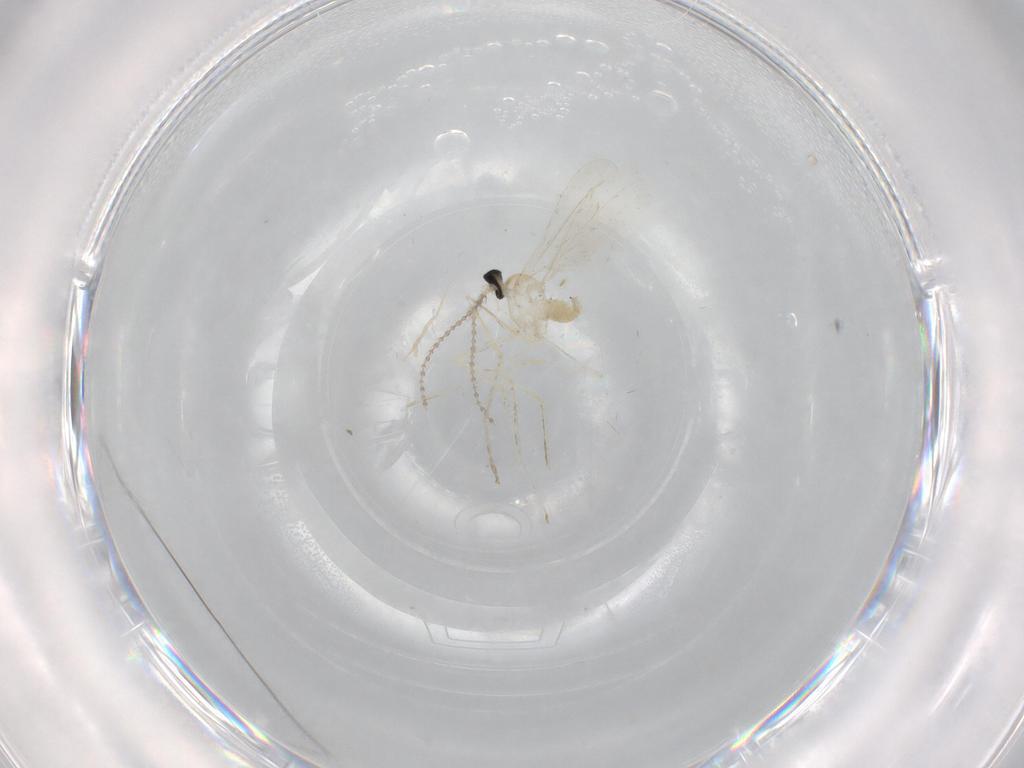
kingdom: Animalia
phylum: Arthropoda
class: Insecta
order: Diptera
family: Cecidomyiidae
